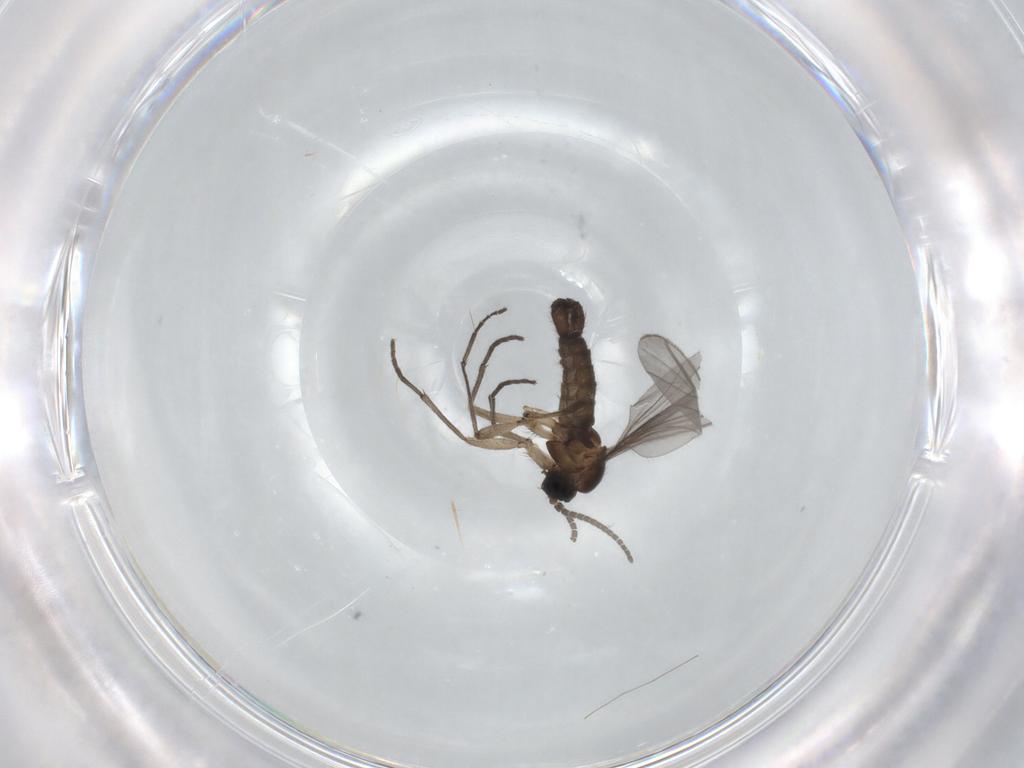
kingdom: Animalia
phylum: Arthropoda
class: Insecta
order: Diptera
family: Sciaridae
